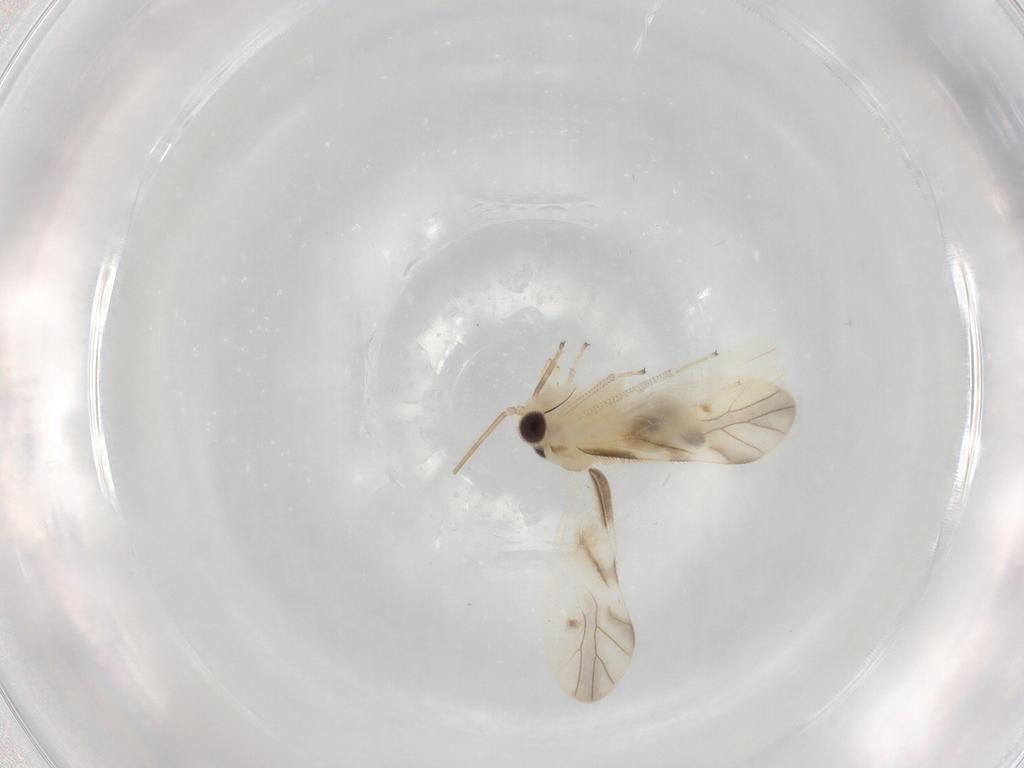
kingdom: Animalia
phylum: Arthropoda
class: Insecta
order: Psocodea
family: Caeciliusidae
